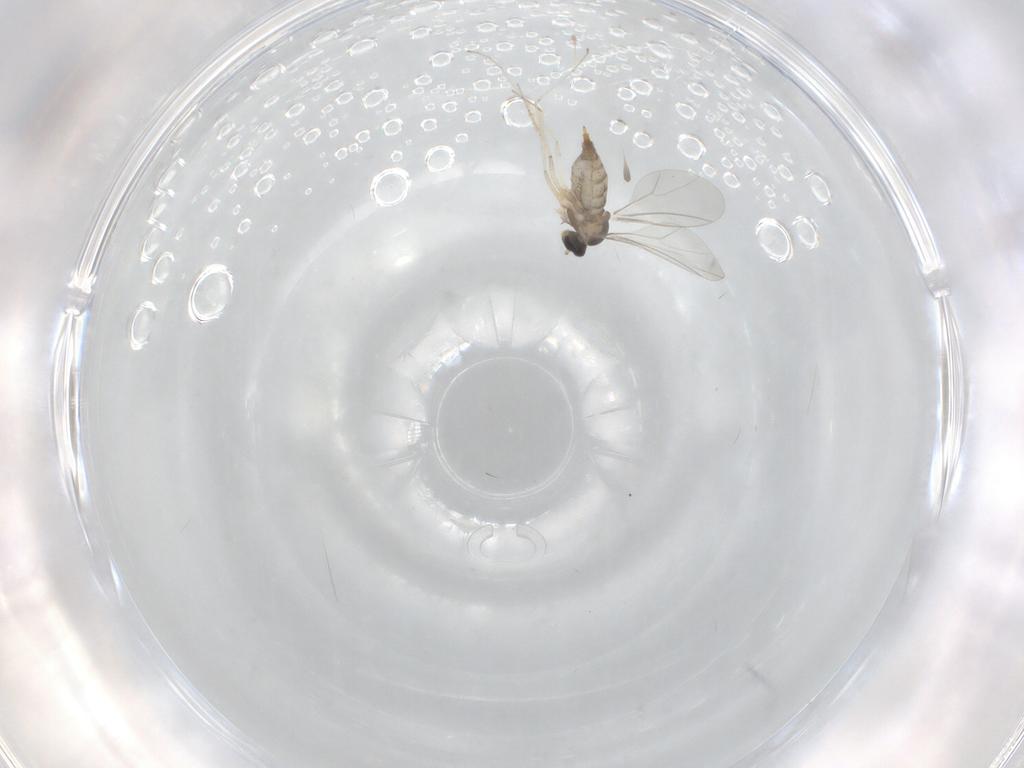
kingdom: Animalia
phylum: Arthropoda
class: Insecta
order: Diptera
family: Cecidomyiidae
